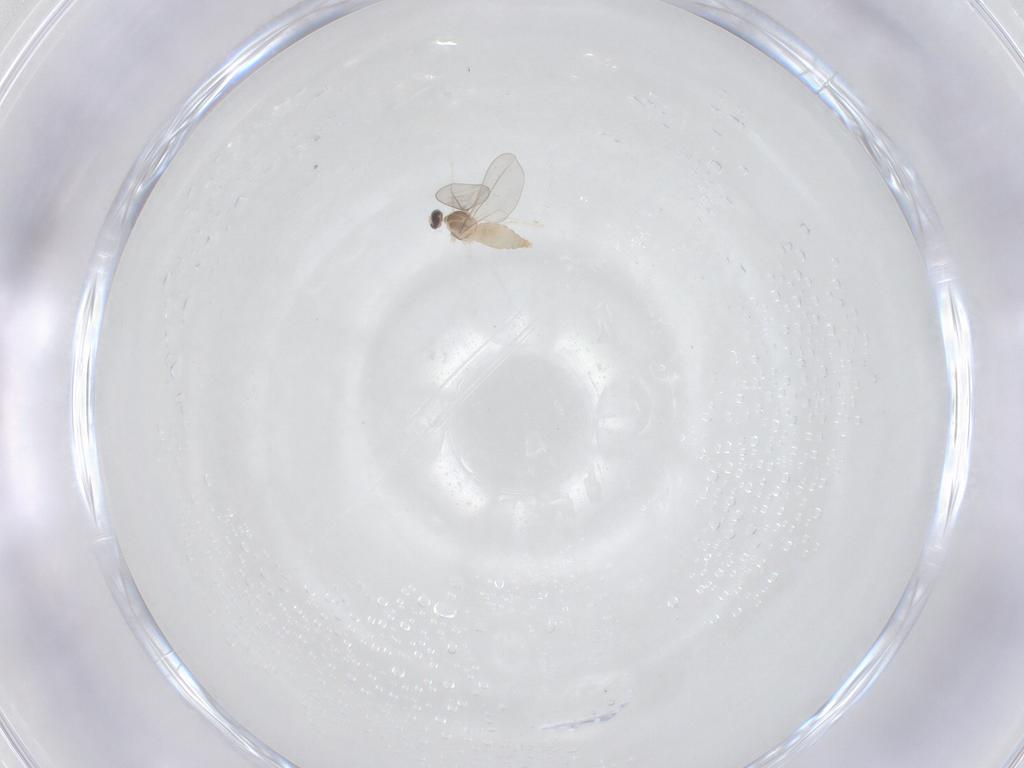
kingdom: Animalia
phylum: Arthropoda
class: Insecta
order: Diptera
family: Cecidomyiidae
